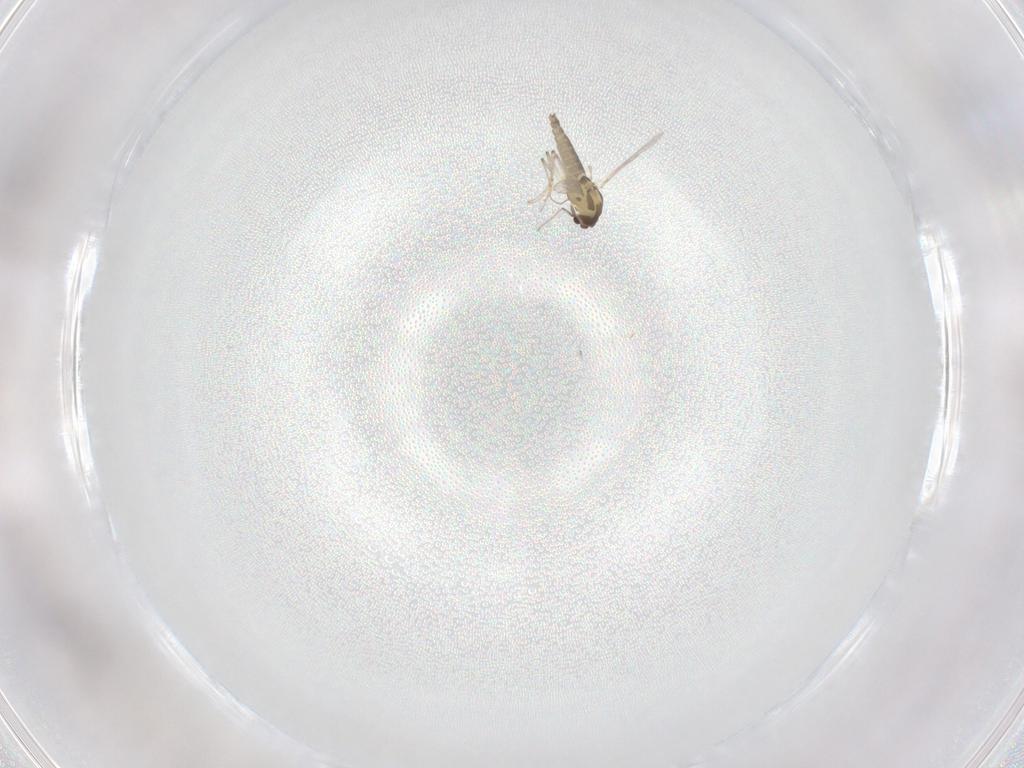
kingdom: Animalia
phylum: Arthropoda
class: Insecta
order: Diptera
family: Chironomidae
